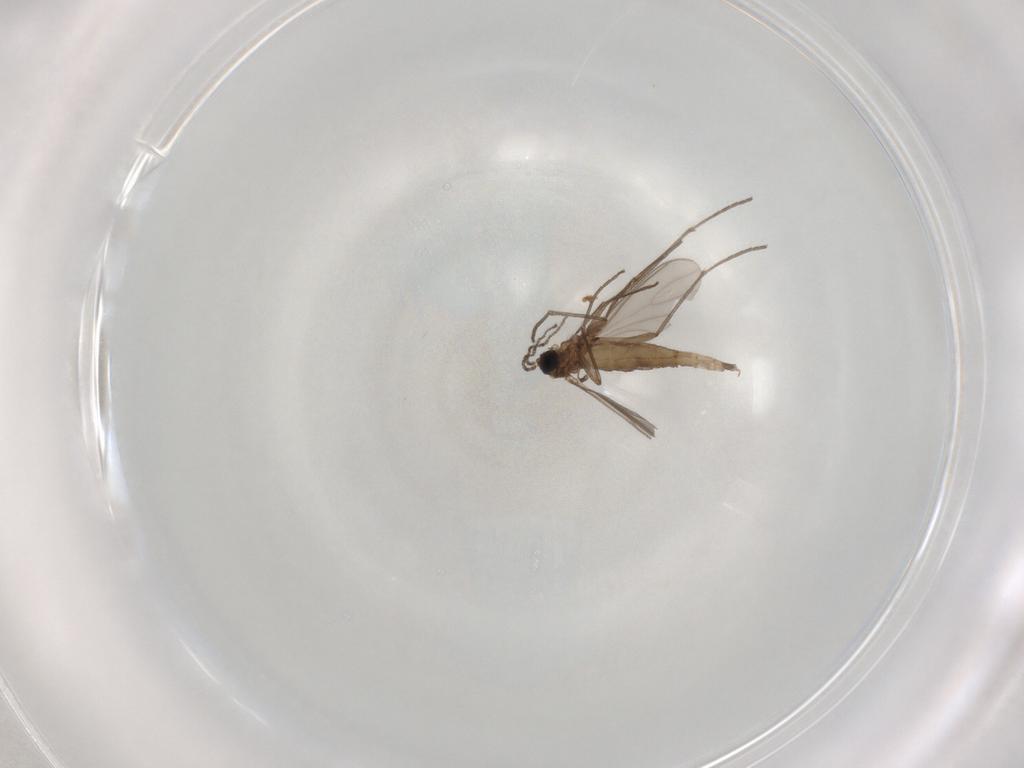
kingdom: Animalia
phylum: Arthropoda
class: Insecta
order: Diptera
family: Sciaridae
